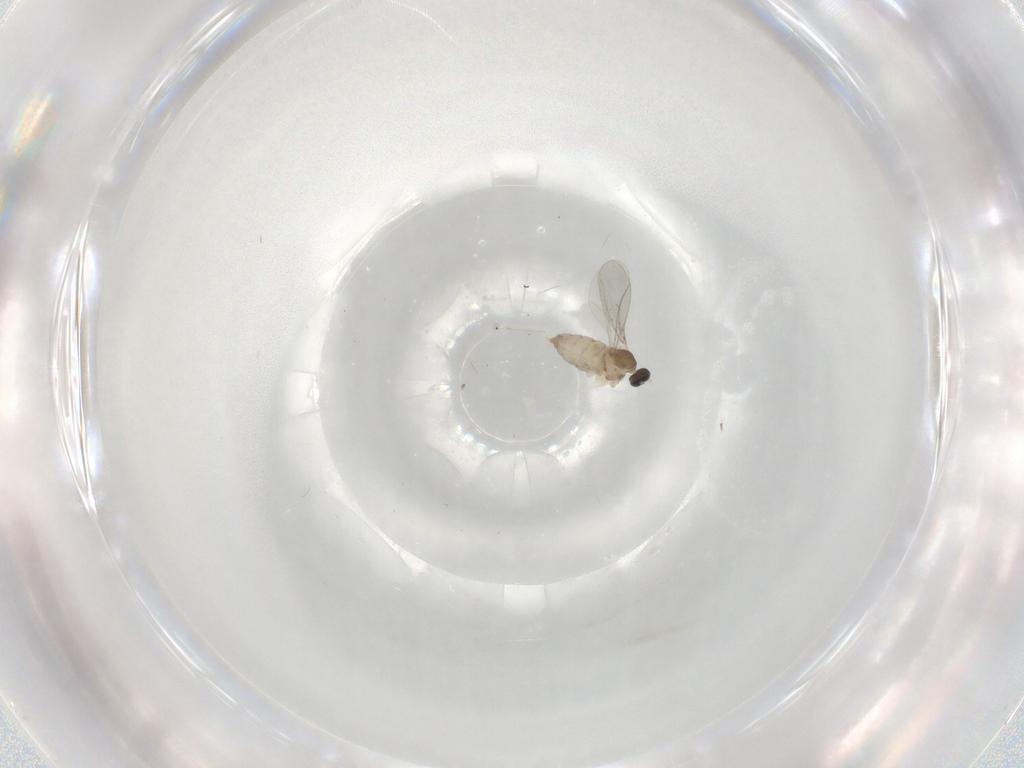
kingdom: Animalia
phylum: Arthropoda
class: Insecta
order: Diptera
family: Cecidomyiidae
